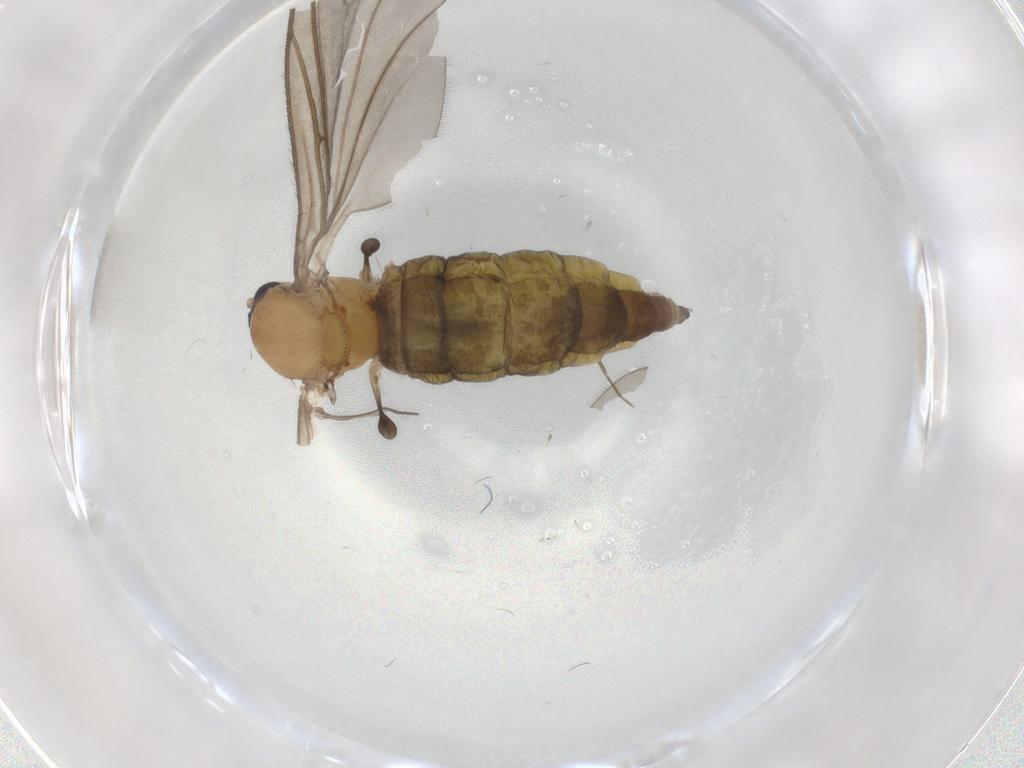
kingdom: Animalia
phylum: Arthropoda
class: Insecta
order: Diptera
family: Sciaridae
